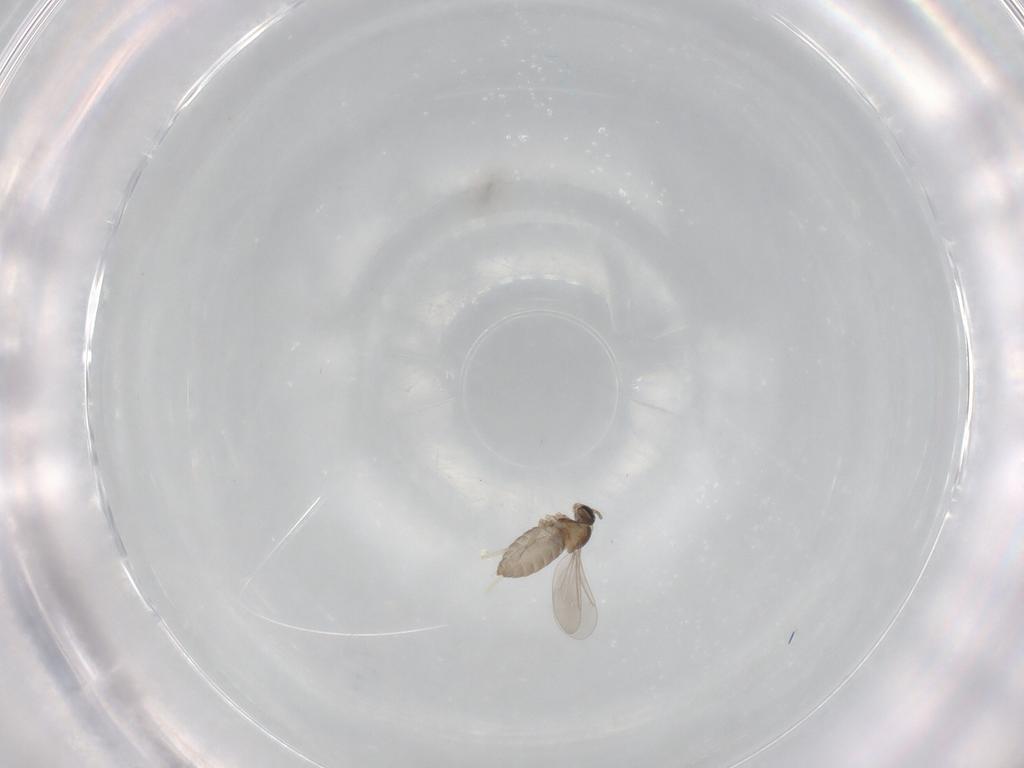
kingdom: Animalia
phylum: Arthropoda
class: Insecta
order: Diptera
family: Cecidomyiidae
